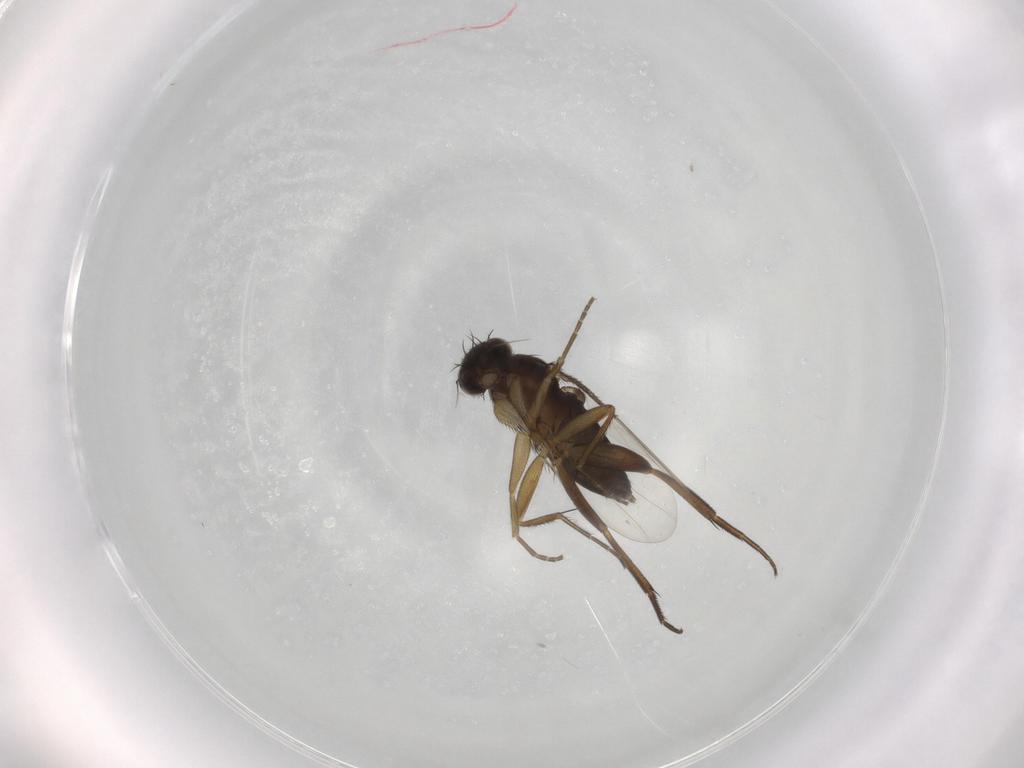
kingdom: Animalia
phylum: Arthropoda
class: Insecta
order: Diptera
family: Phoridae
